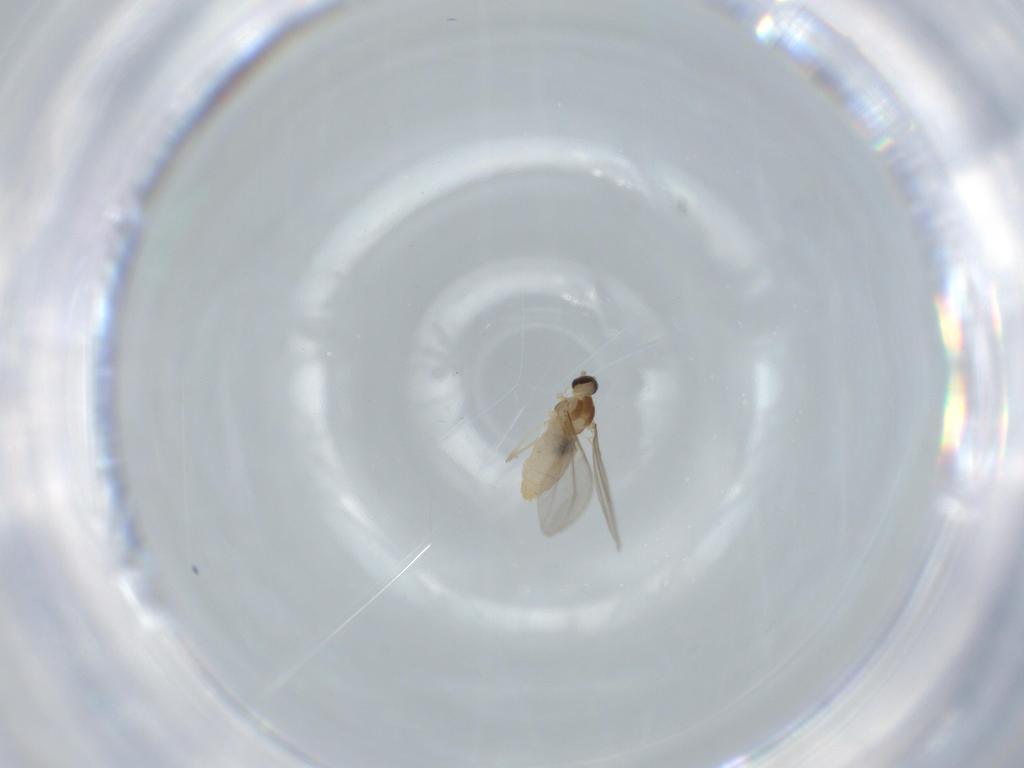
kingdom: Animalia
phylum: Arthropoda
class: Insecta
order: Diptera
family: Cecidomyiidae
